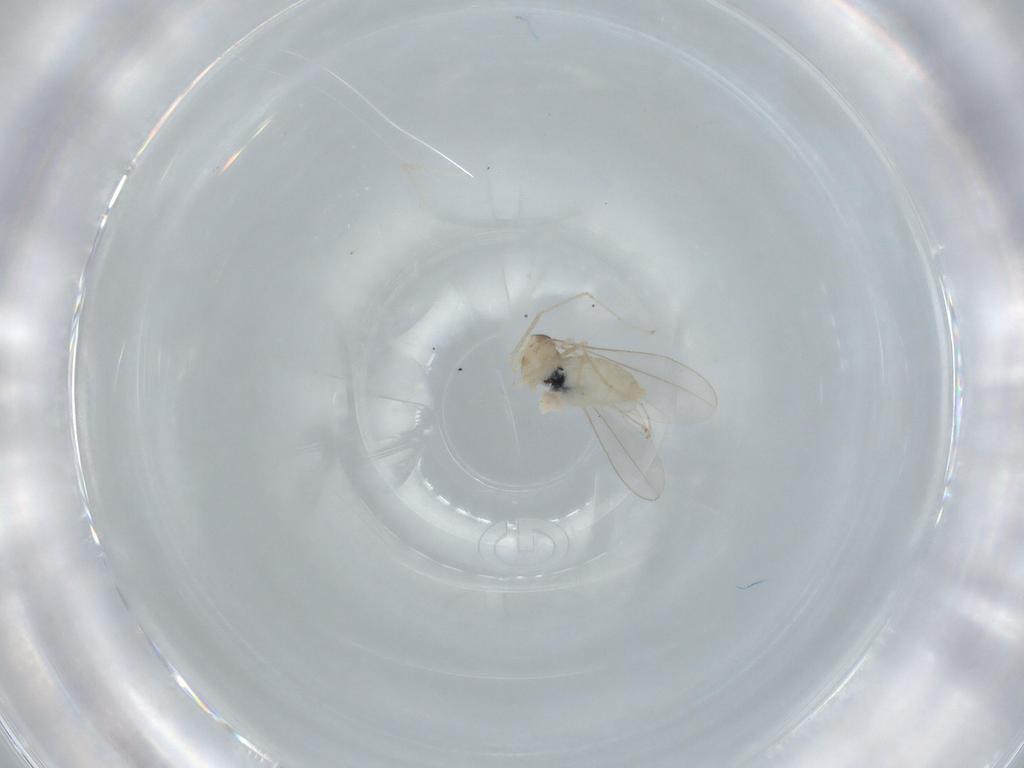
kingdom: Animalia
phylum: Arthropoda
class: Insecta
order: Diptera
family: Cecidomyiidae
